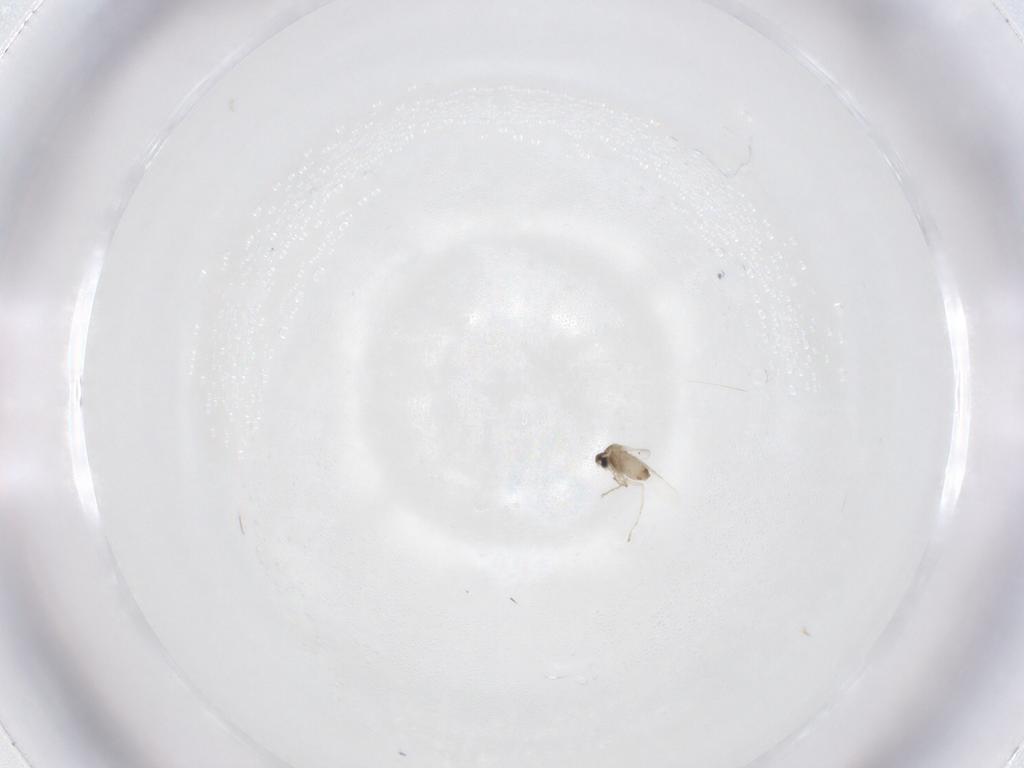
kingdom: Animalia
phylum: Arthropoda
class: Insecta
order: Diptera
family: Cecidomyiidae
